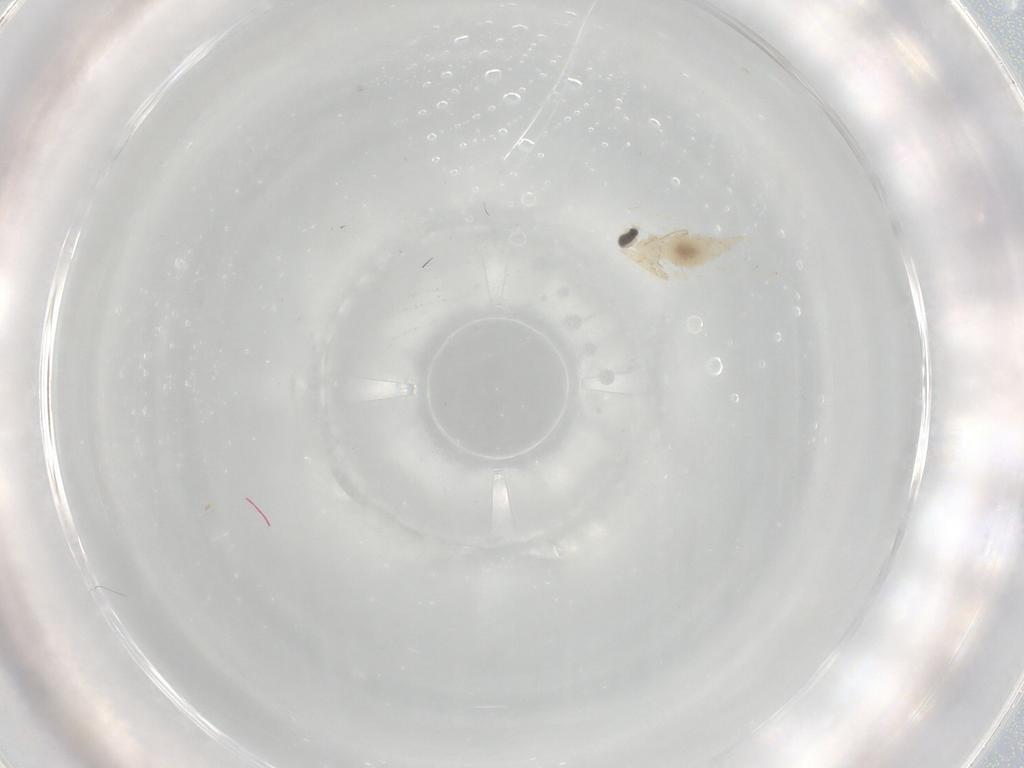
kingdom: Animalia
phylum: Arthropoda
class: Insecta
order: Diptera
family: Cecidomyiidae
